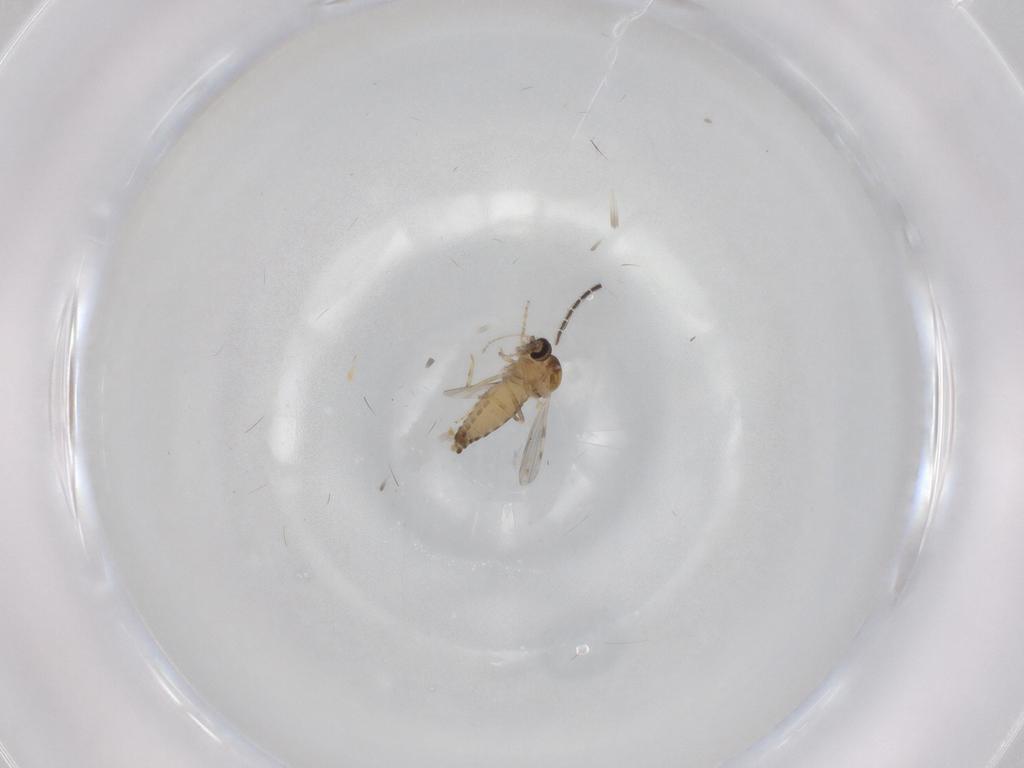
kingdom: Animalia
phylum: Arthropoda
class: Insecta
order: Diptera
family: Ceratopogonidae
